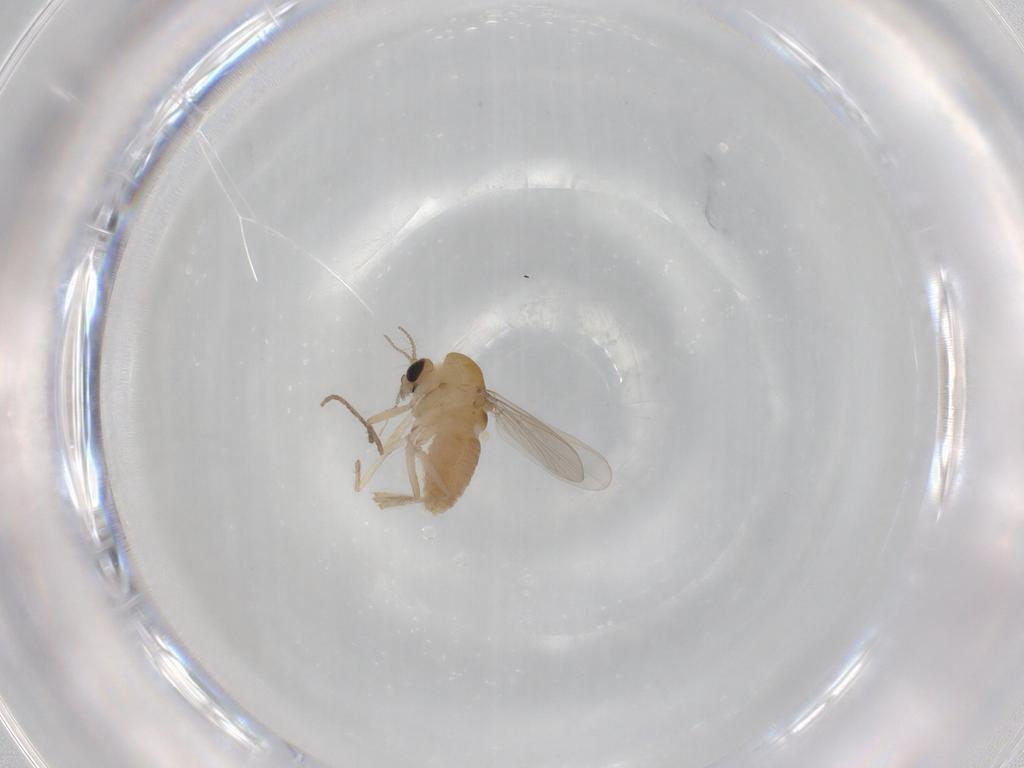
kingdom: Animalia
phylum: Arthropoda
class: Insecta
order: Diptera
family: Chironomidae
